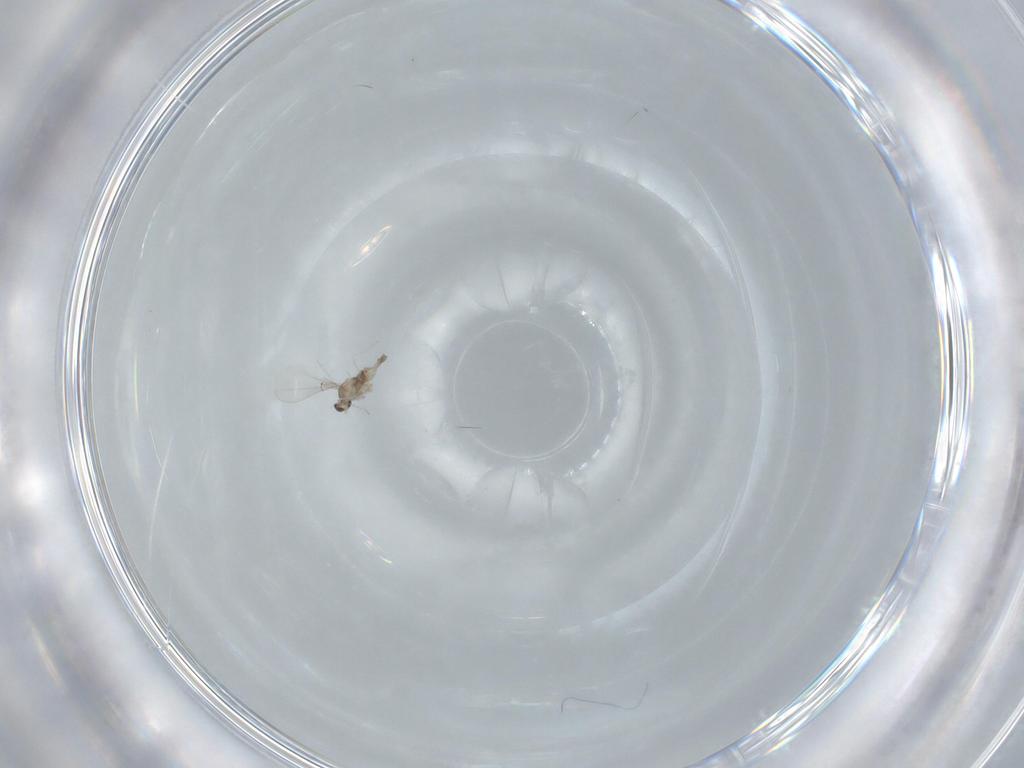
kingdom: Animalia
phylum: Arthropoda
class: Insecta
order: Diptera
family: Cecidomyiidae
